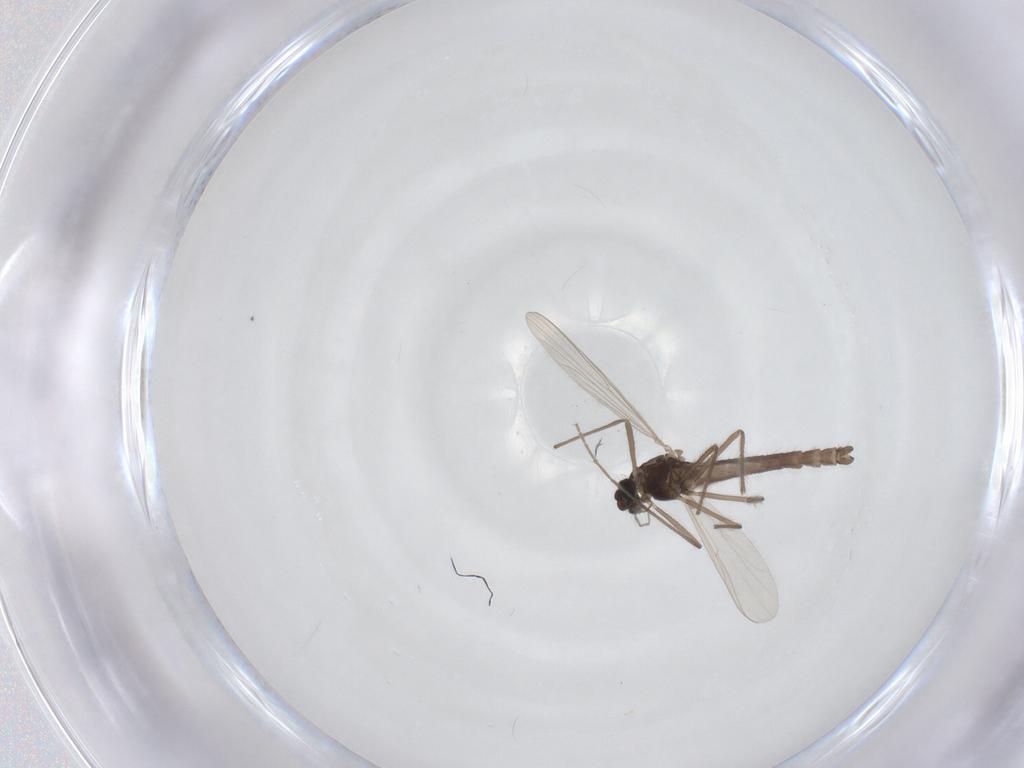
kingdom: Animalia
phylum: Arthropoda
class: Insecta
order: Diptera
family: Chironomidae
